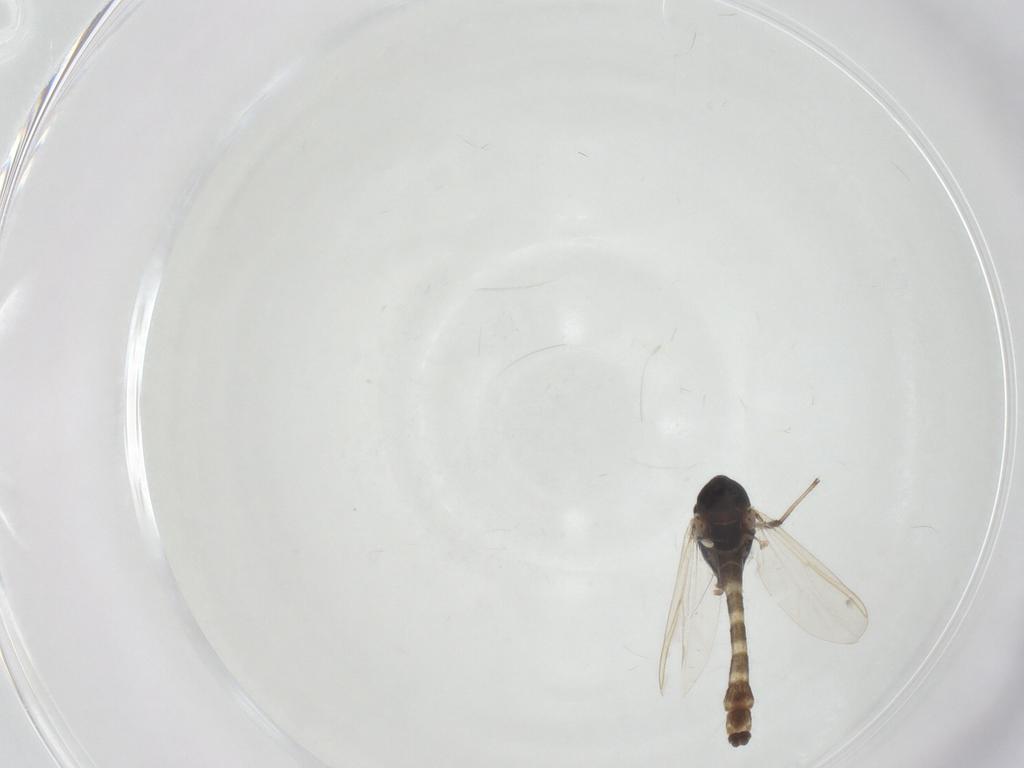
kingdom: Animalia
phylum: Arthropoda
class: Insecta
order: Diptera
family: Chironomidae
